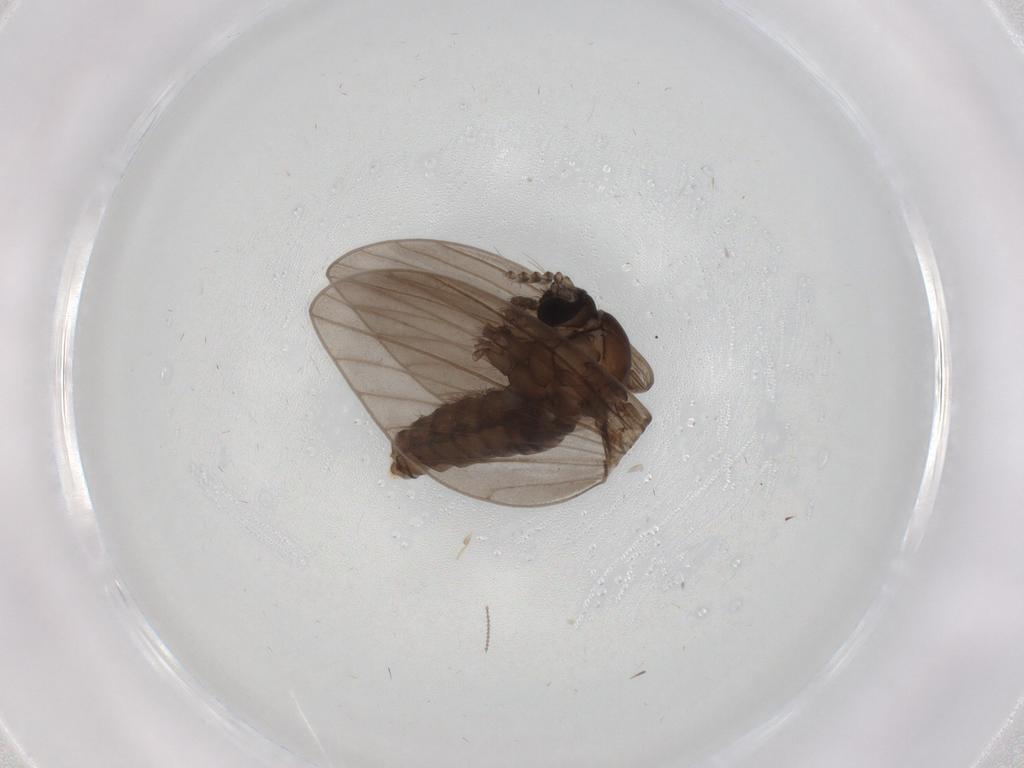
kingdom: Animalia
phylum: Arthropoda
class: Insecta
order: Diptera
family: Psychodidae
